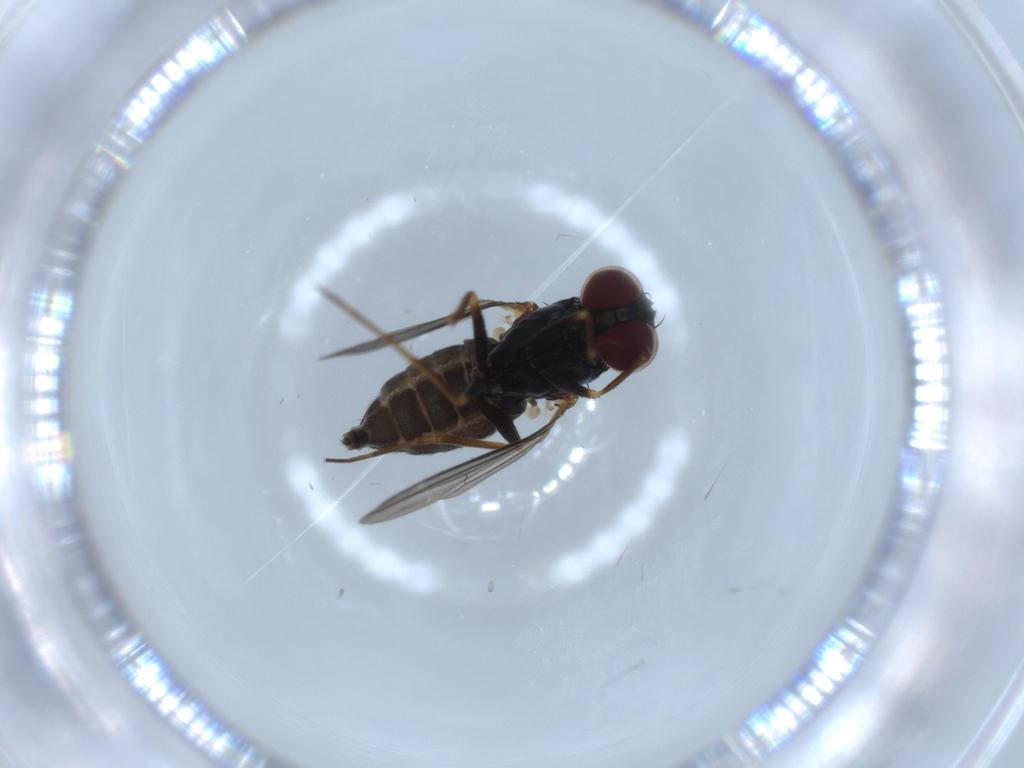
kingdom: Animalia
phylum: Arthropoda
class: Insecta
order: Diptera
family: Dolichopodidae
